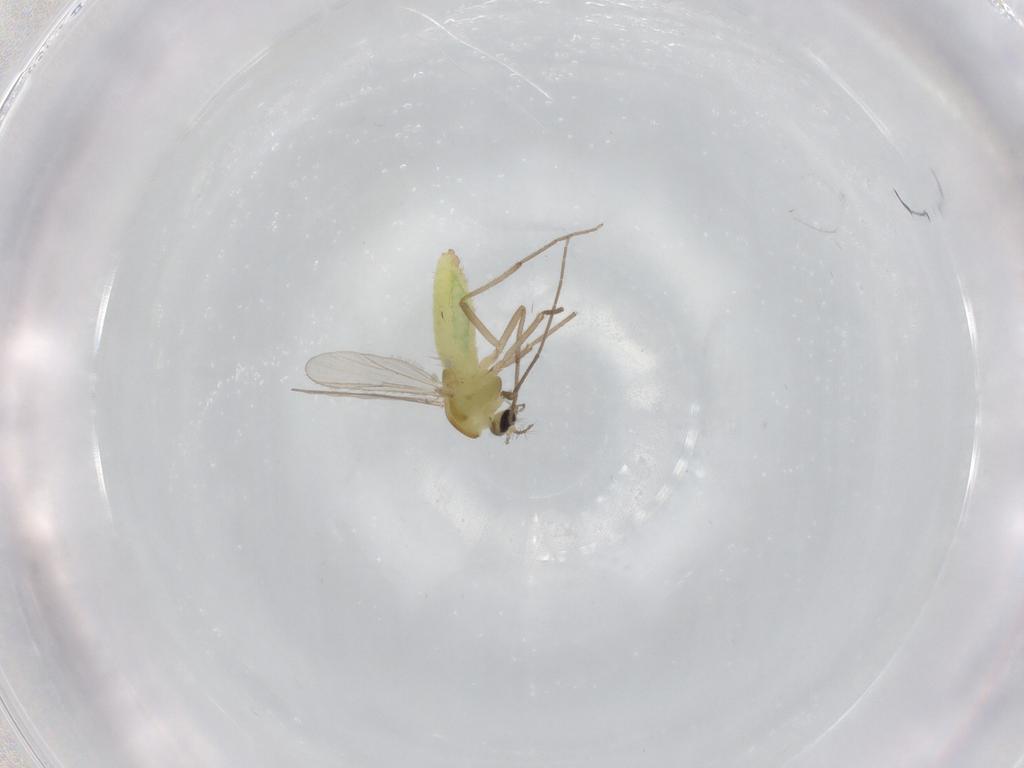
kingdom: Animalia
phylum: Arthropoda
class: Insecta
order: Diptera
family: Chironomidae
